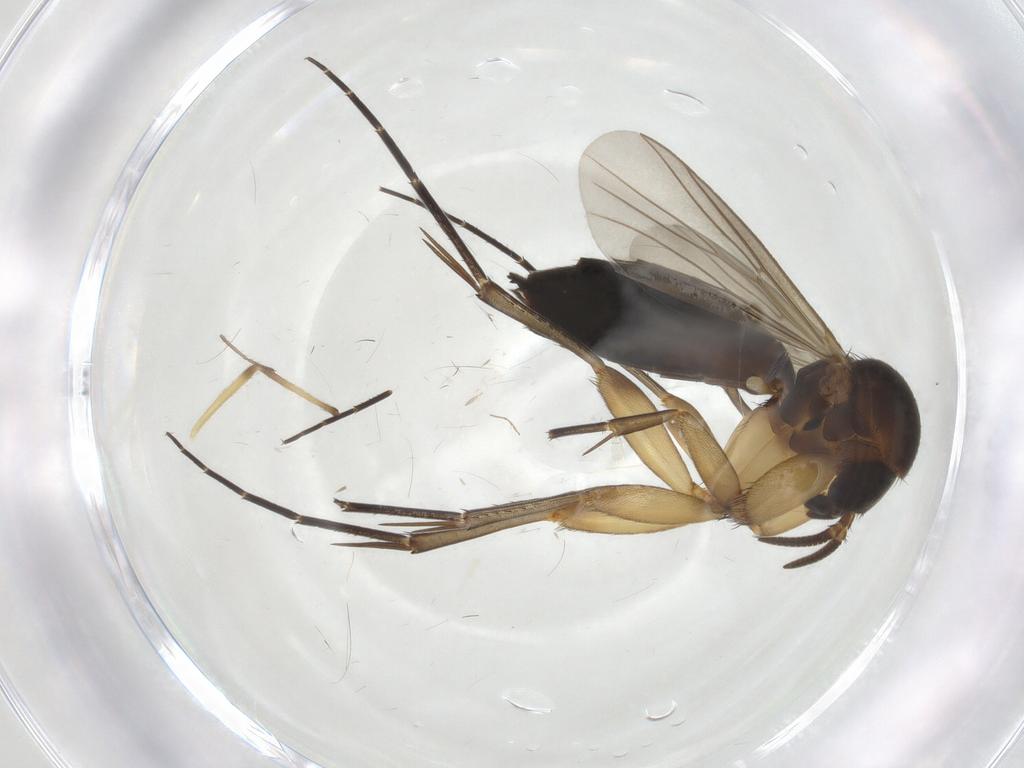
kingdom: Animalia
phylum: Arthropoda
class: Insecta
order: Diptera
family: Mycetophilidae
